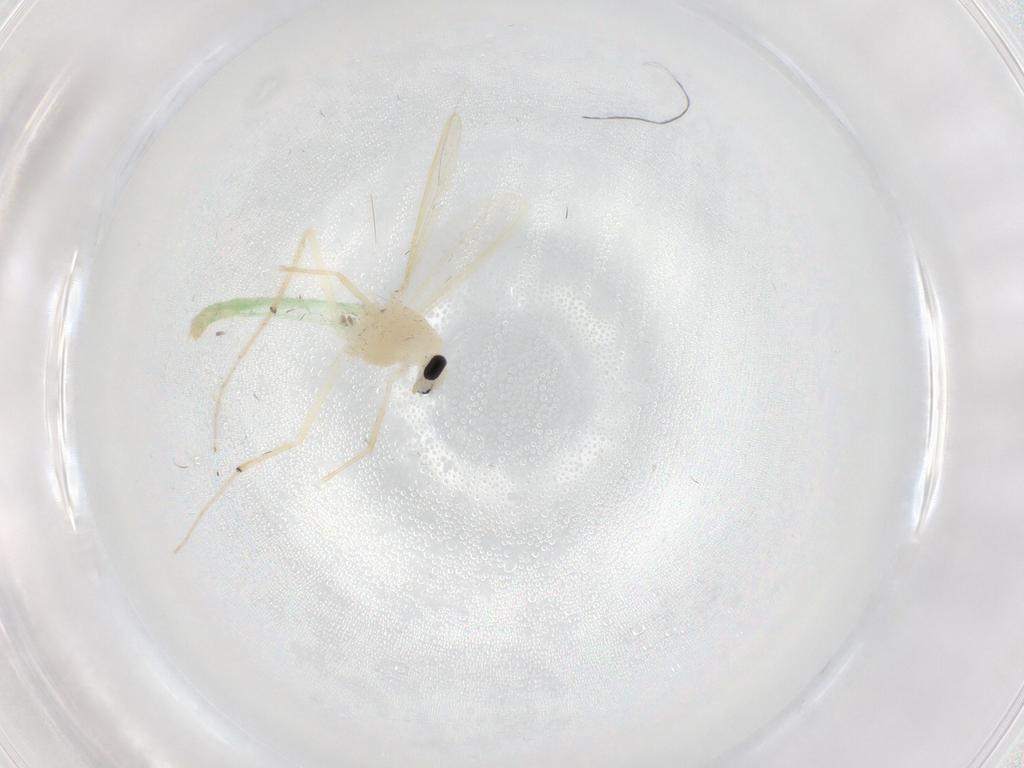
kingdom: Animalia
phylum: Arthropoda
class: Insecta
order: Diptera
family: Chironomidae
